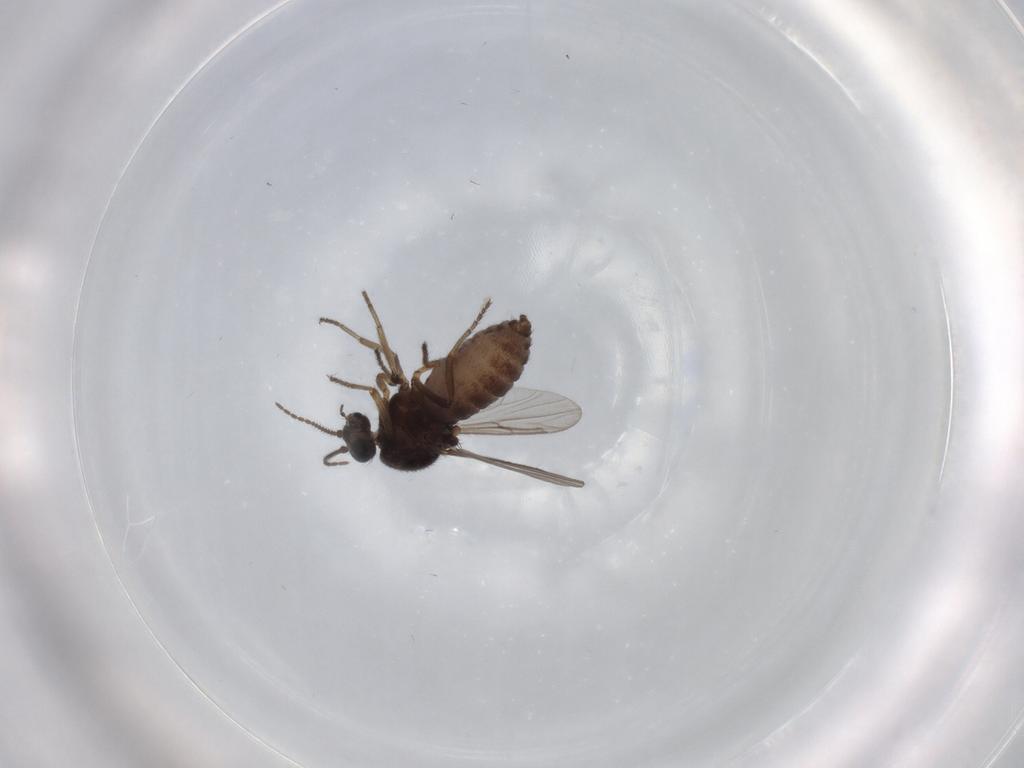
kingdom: Animalia
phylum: Arthropoda
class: Insecta
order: Diptera
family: Ceratopogonidae
